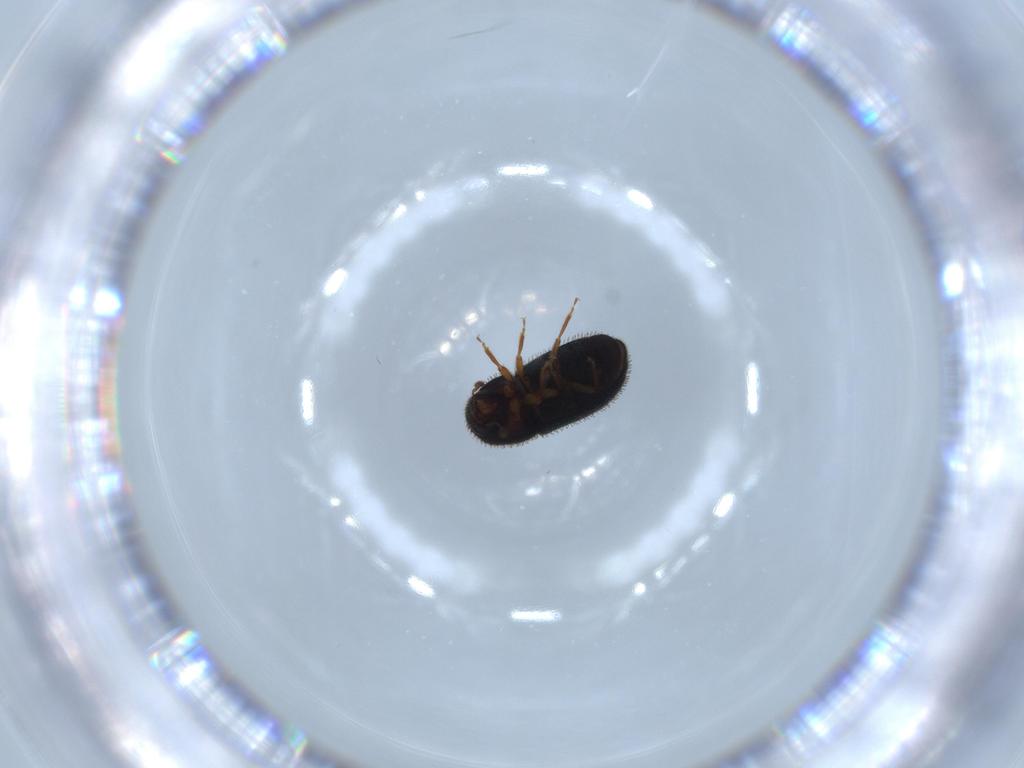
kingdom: Animalia
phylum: Arthropoda
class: Insecta
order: Coleoptera
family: Curculionidae
